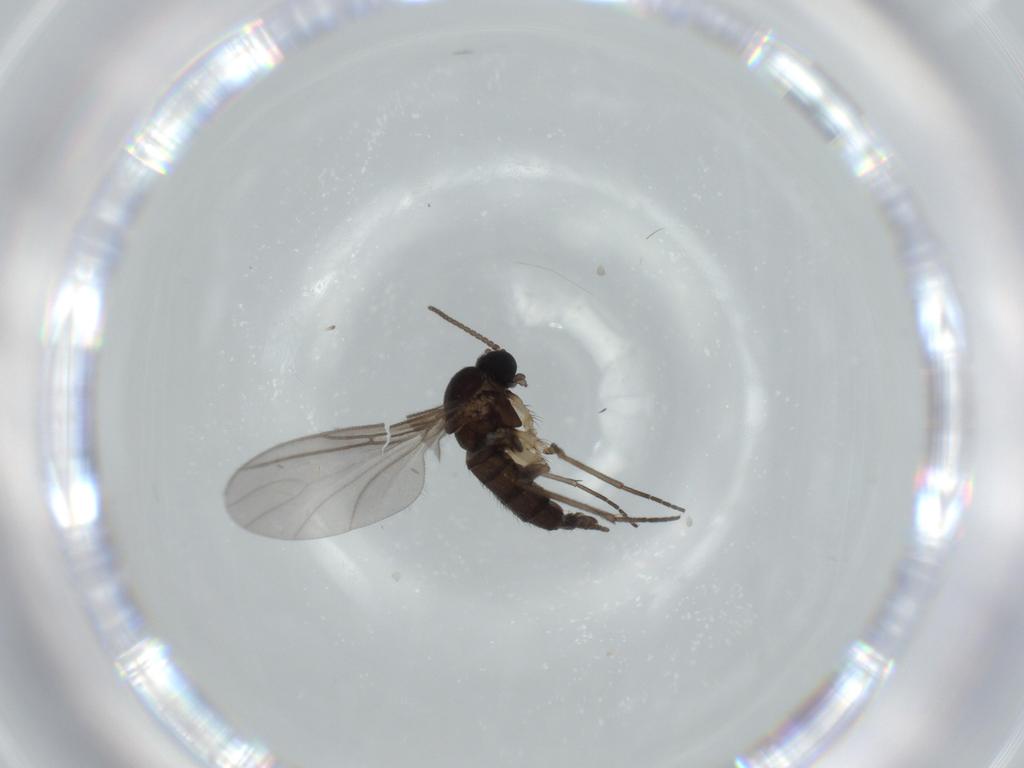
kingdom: Animalia
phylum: Arthropoda
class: Insecta
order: Diptera
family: Sciaridae
